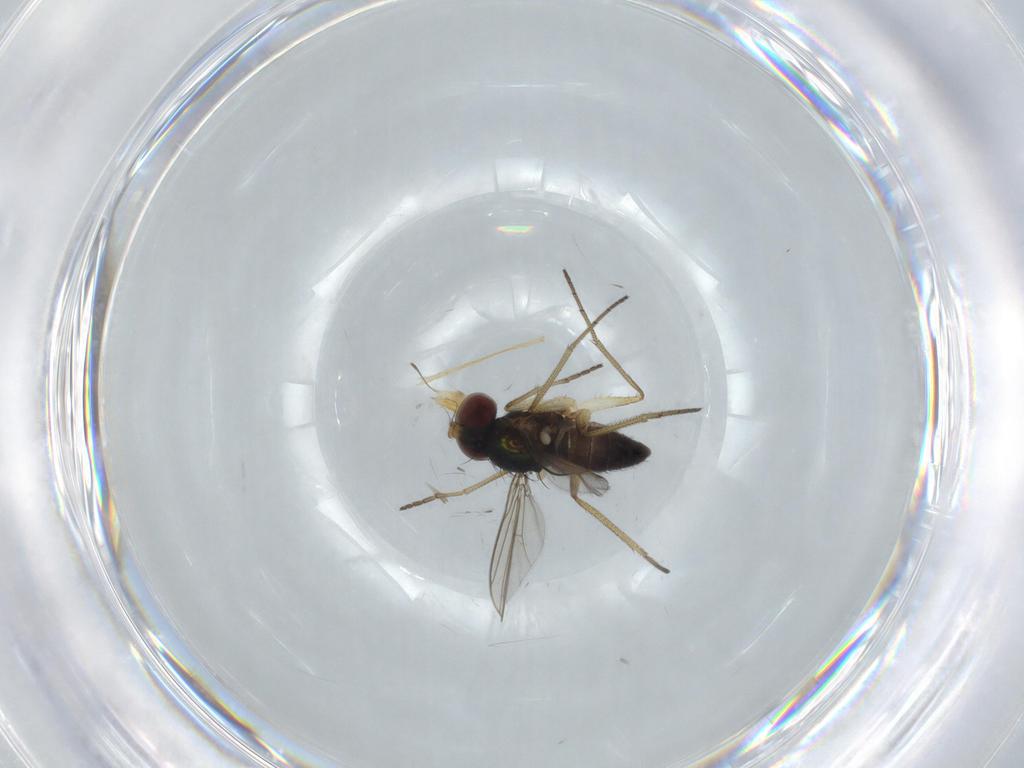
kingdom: Animalia
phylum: Arthropoda
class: Insecta
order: Diptera
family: Dolichopodidae
